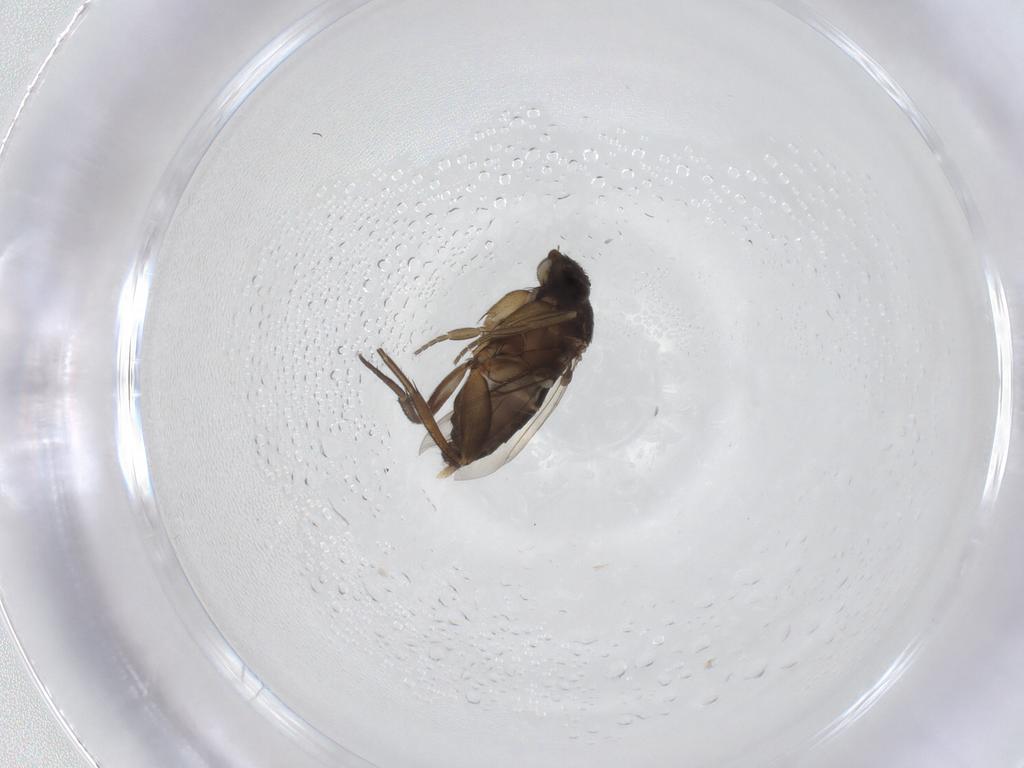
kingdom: Animalia
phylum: Arthropoda
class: Insecta
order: Diptera
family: Phoridae
